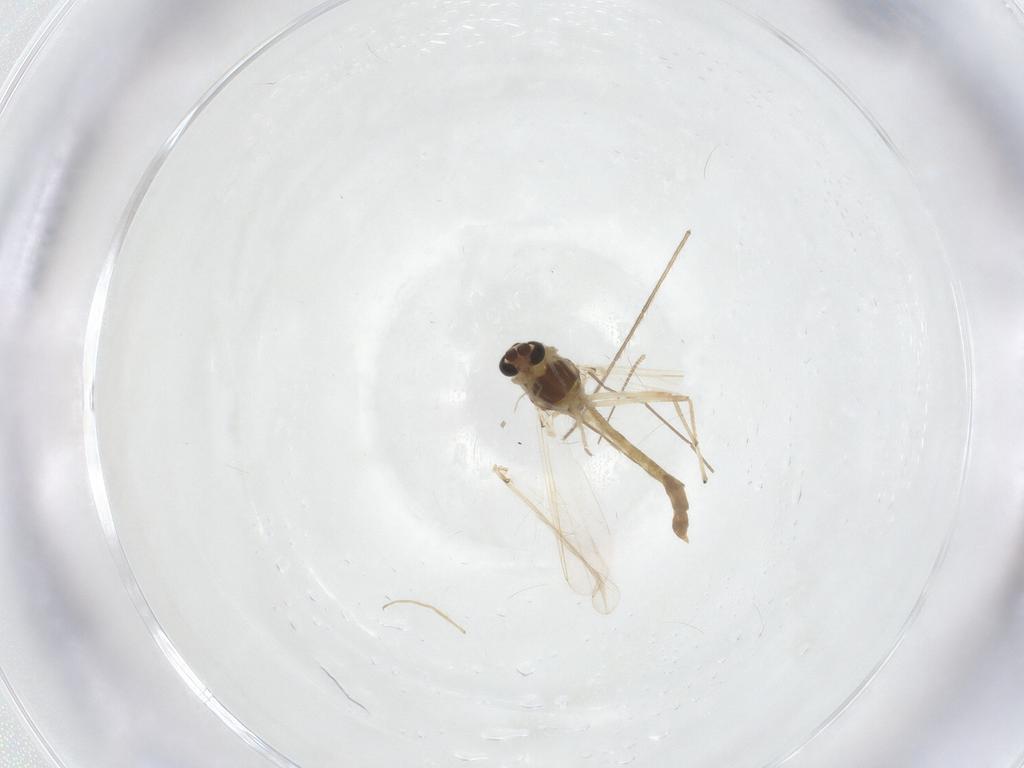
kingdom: Animalia
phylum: Arthropoda
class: Insecta
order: Diptera
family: Chironomidae
